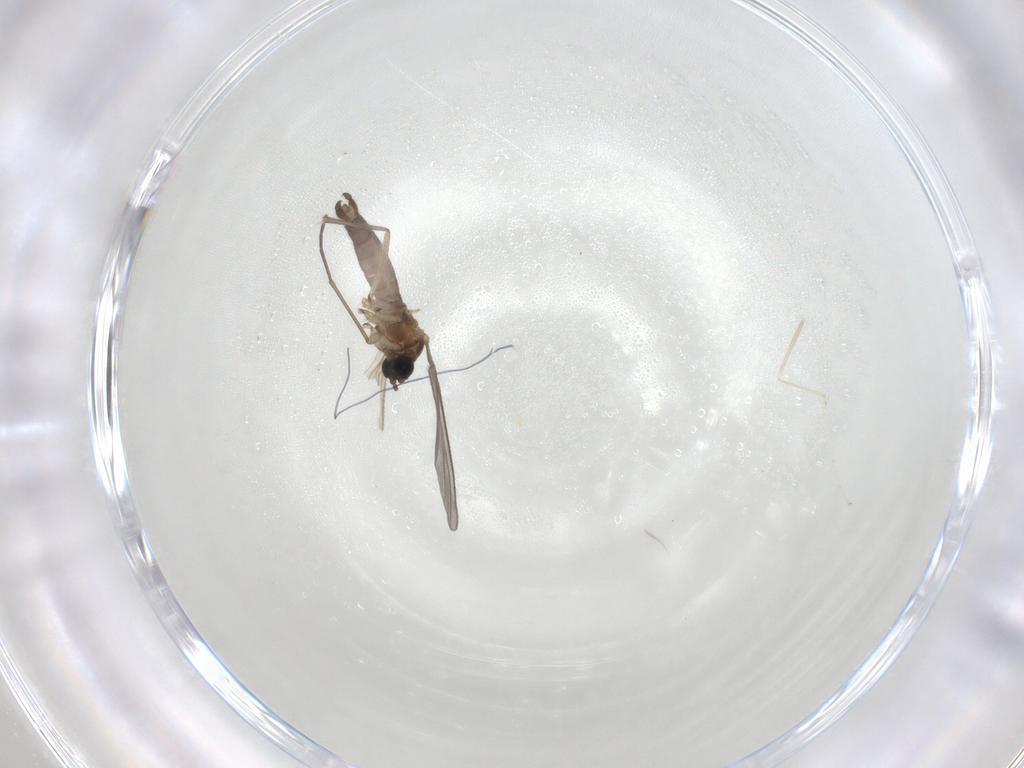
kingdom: Animalia
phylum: Arthropoda
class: Insecta
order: Diptera
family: Sciaridae
